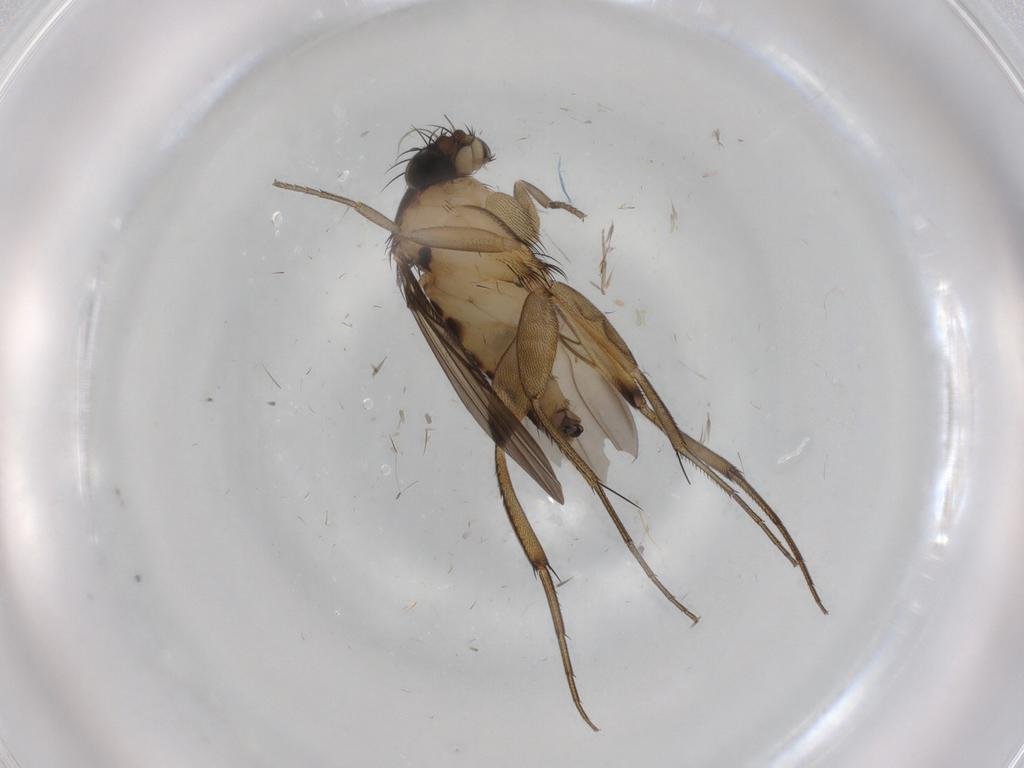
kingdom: Animalia
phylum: Arthropoda
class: Insecta
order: Diptera
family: Phoridae
